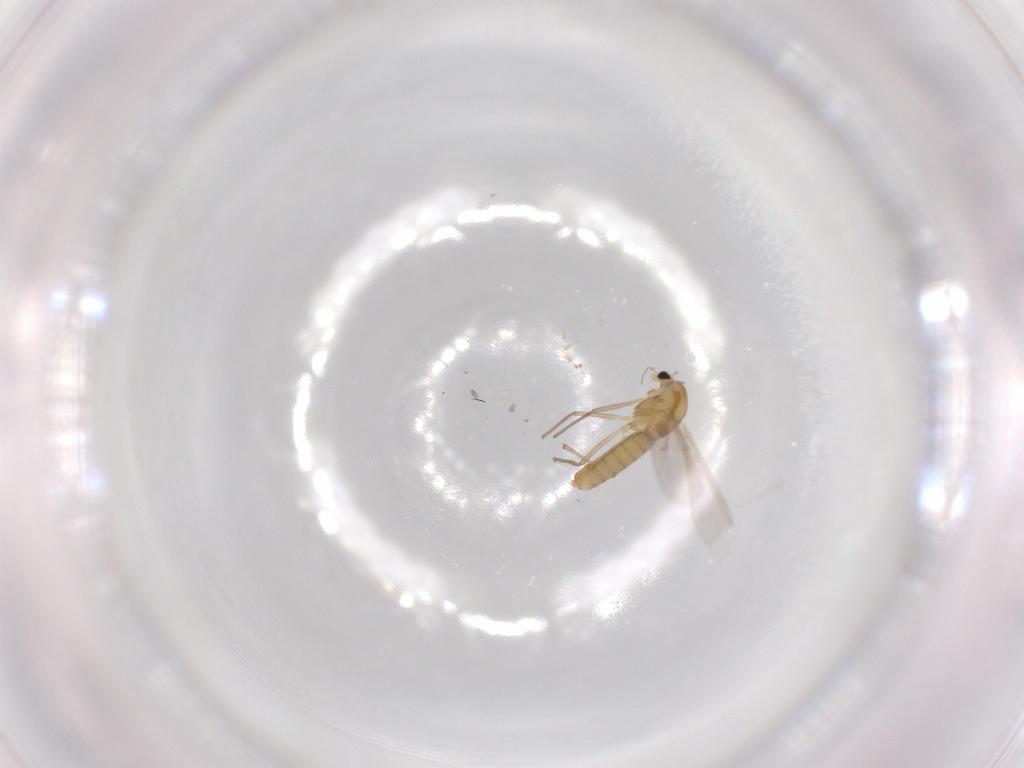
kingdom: Animalia
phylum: Arthropoda
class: Insecta
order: Diptera
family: Chironomidae
